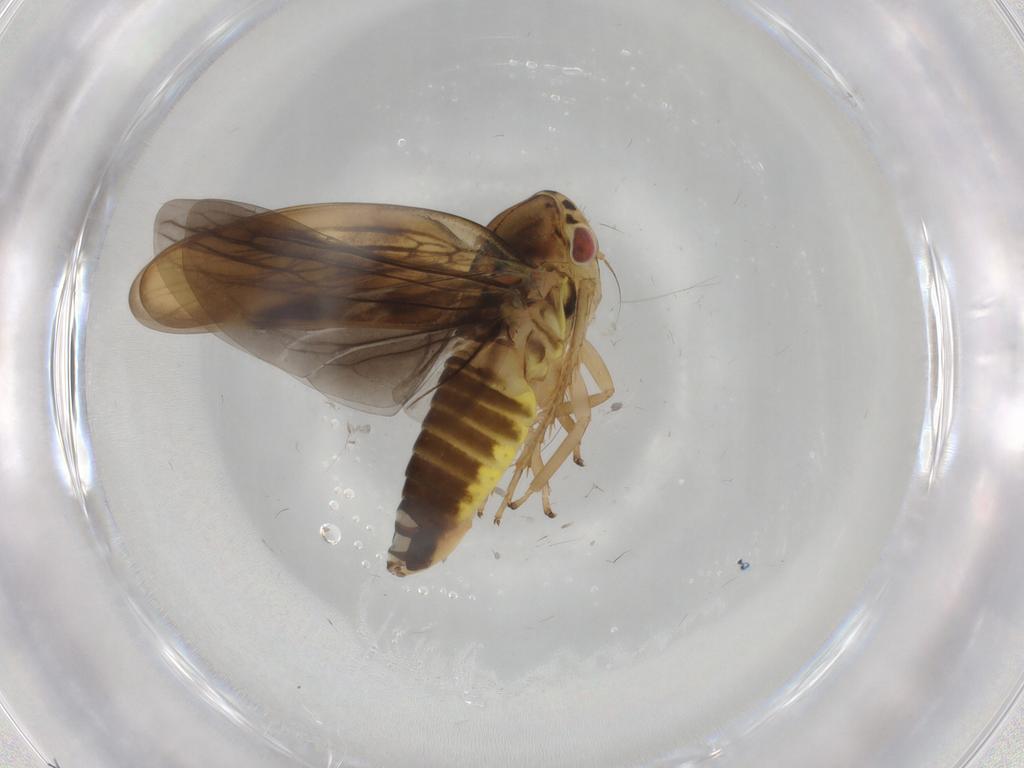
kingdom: Animalia
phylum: Arthropoda
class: Insecta
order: Hemiptera
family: Cicadellidae
